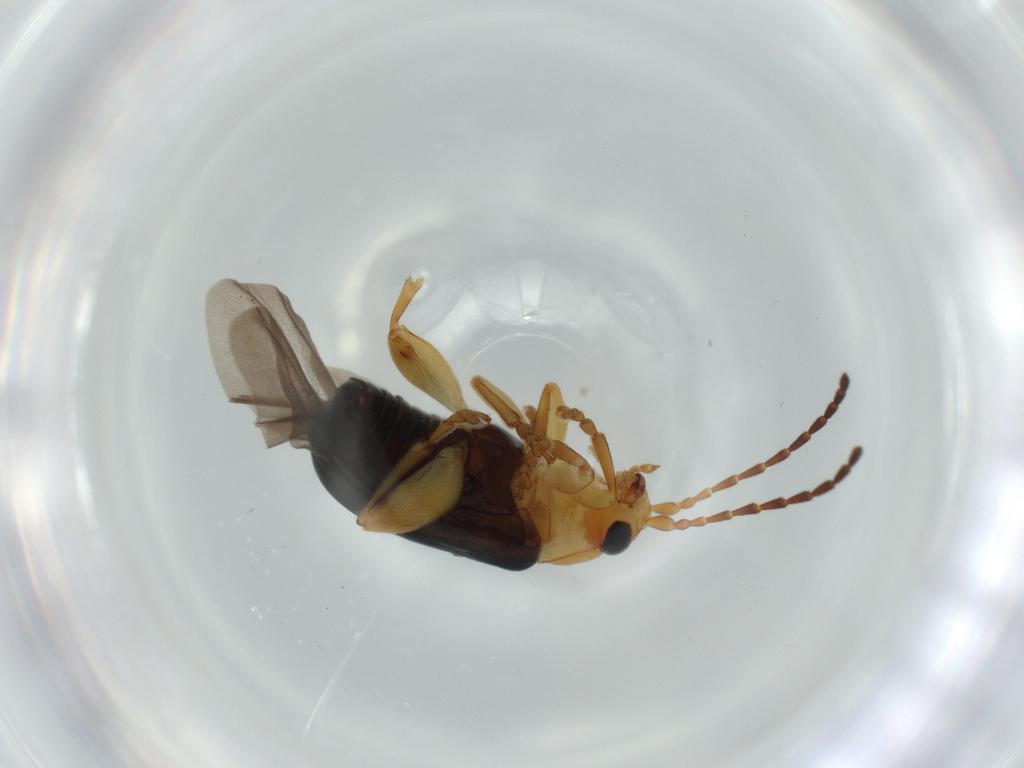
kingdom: Animalia
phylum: Arthropoda
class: Insecta
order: Coleoptera
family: Chrysomelidae
